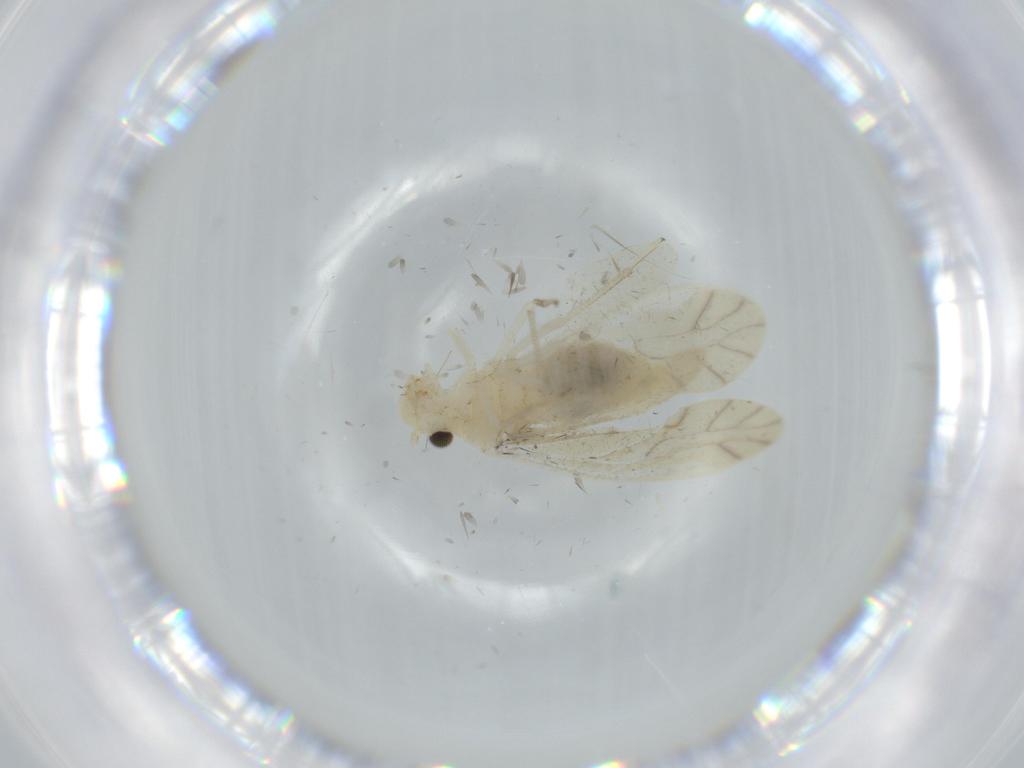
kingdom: Animalia
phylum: Arthropoda
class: Insecta
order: Psocodea
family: Caeciliusidae
